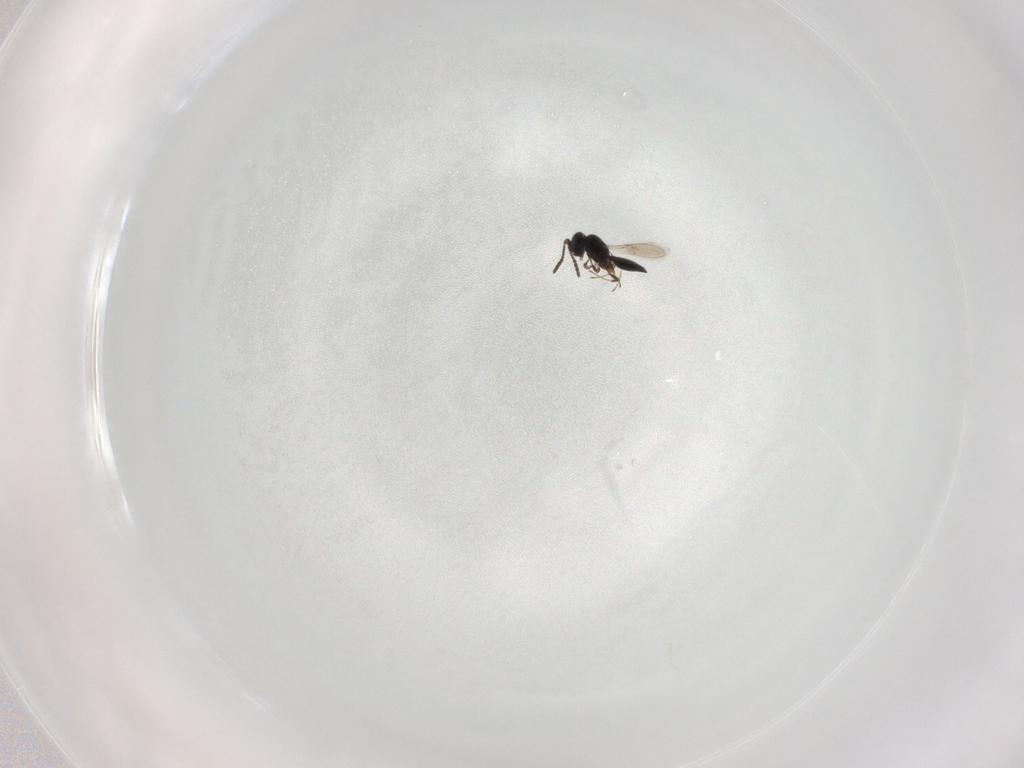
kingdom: Animalia
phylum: Arthropoda
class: Insecta
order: Hymenoptera
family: Scelionidae
